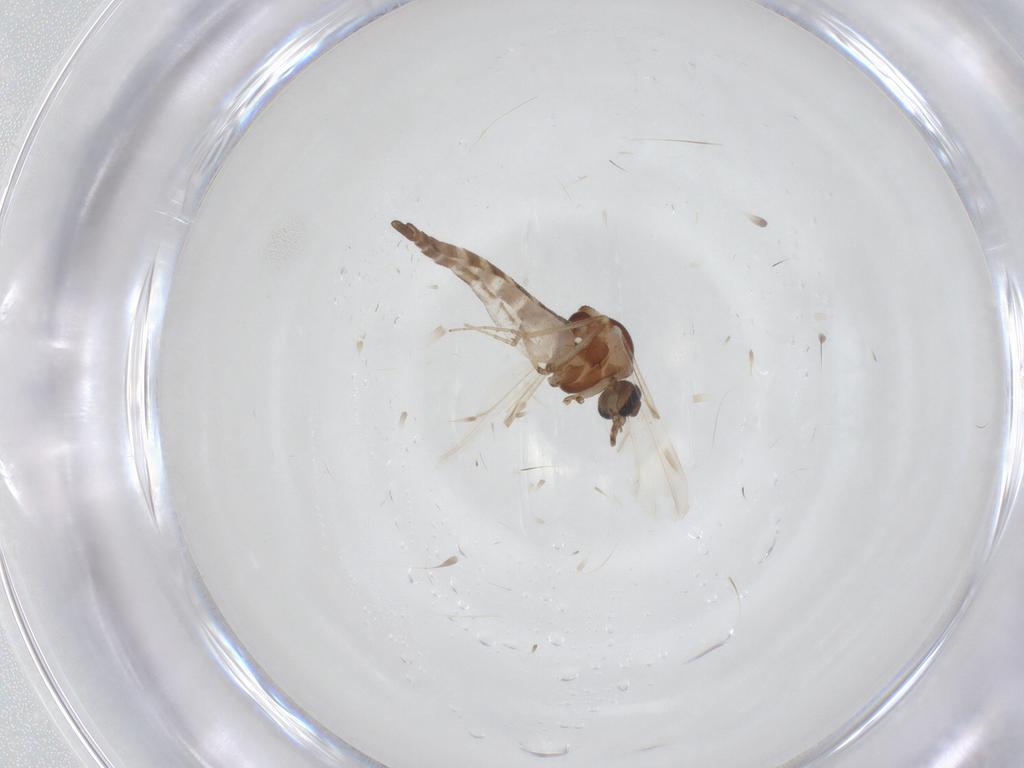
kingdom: Animalia
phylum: Arthropoda
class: Insecta
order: Diptera
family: Ceratopogonidae
